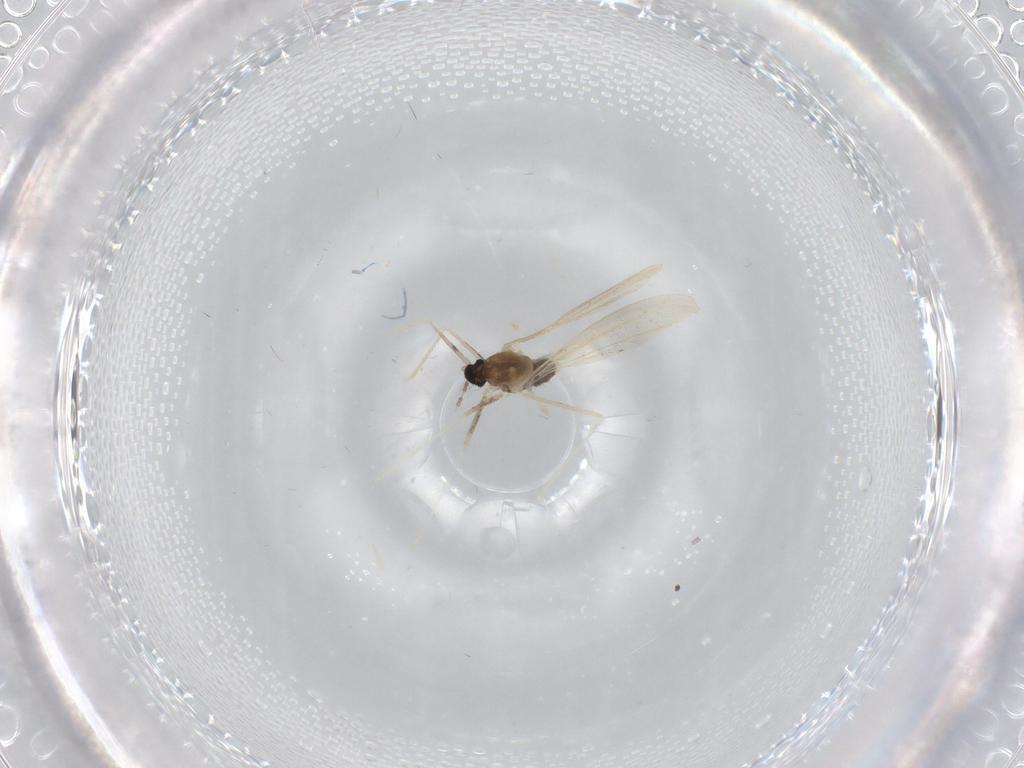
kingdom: Animalia
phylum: Arthropoda
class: Insecta
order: Diptera
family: Cecidomyiidae
